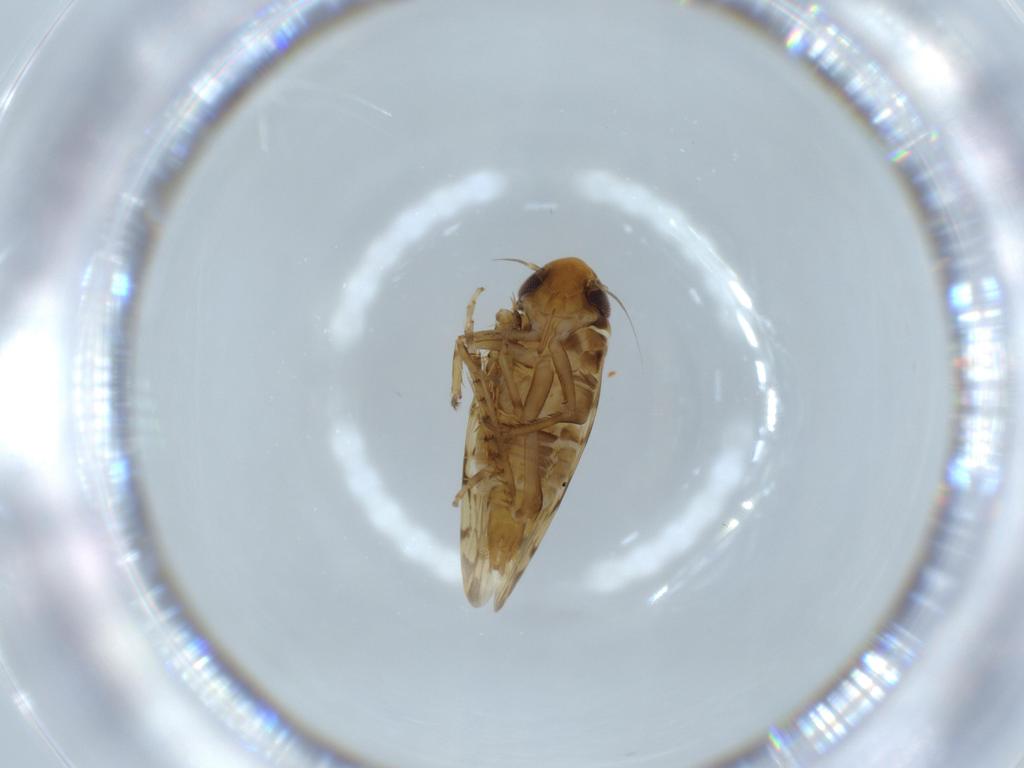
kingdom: Animalia
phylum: Arthropoda
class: Insecta
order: Hemiptera
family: Cicadellidae
